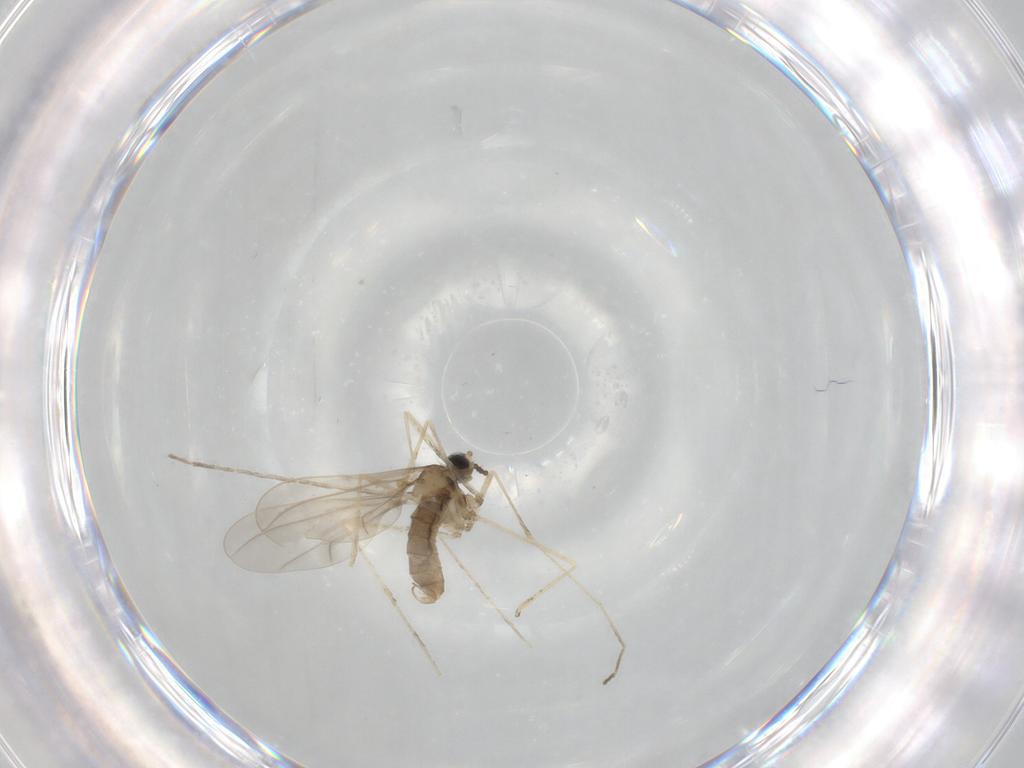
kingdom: Animalia
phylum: Arthropoda
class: Insecta
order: Diptera
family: Cecidomyiidae
